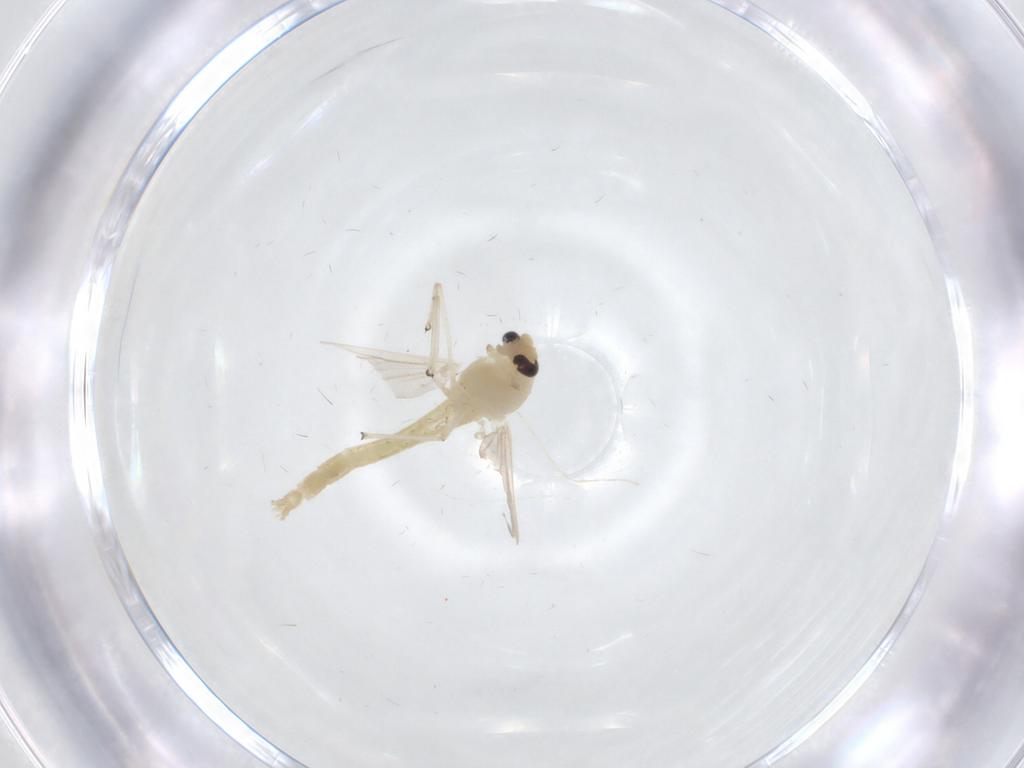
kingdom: Animalia
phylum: Arthropoda
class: Insecta
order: Diptera
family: Chironomidae
